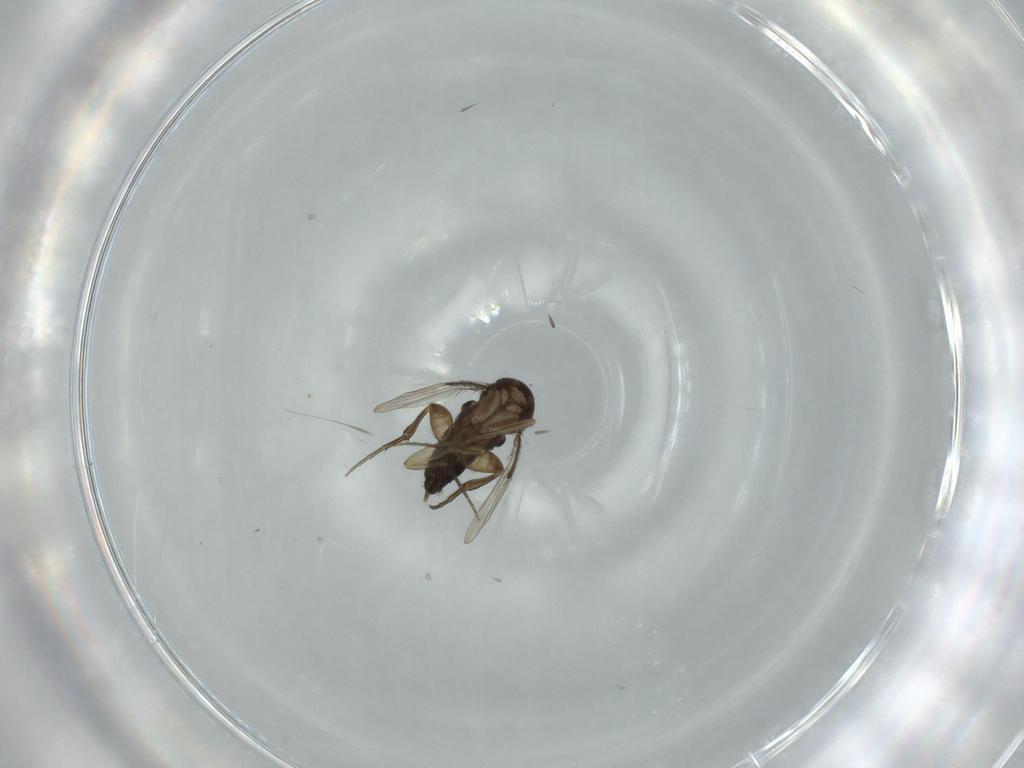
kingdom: Animalia
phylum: Arthropoda
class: Insecta
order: Diptera
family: Cecidomyiidae
